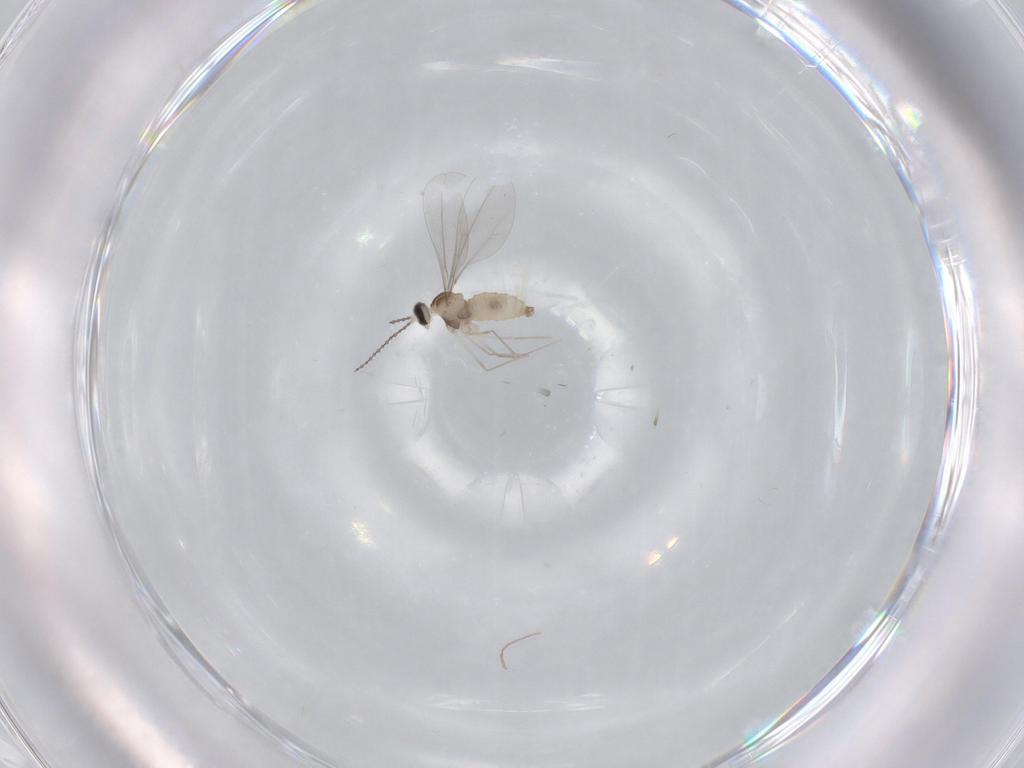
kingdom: Animalia
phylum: Arthropoda
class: Insecta
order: Diptera
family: Cecidomyiidae
